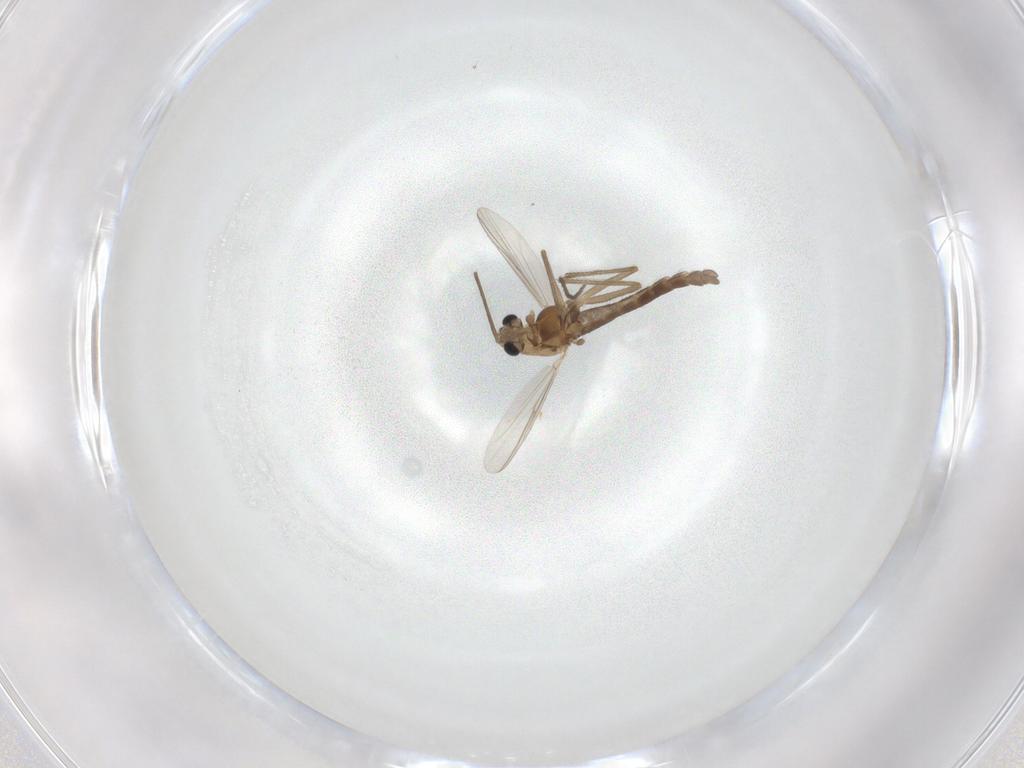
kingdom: Animalia
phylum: Arthropoda
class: Insecta
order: Diptera
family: Chironomidae
